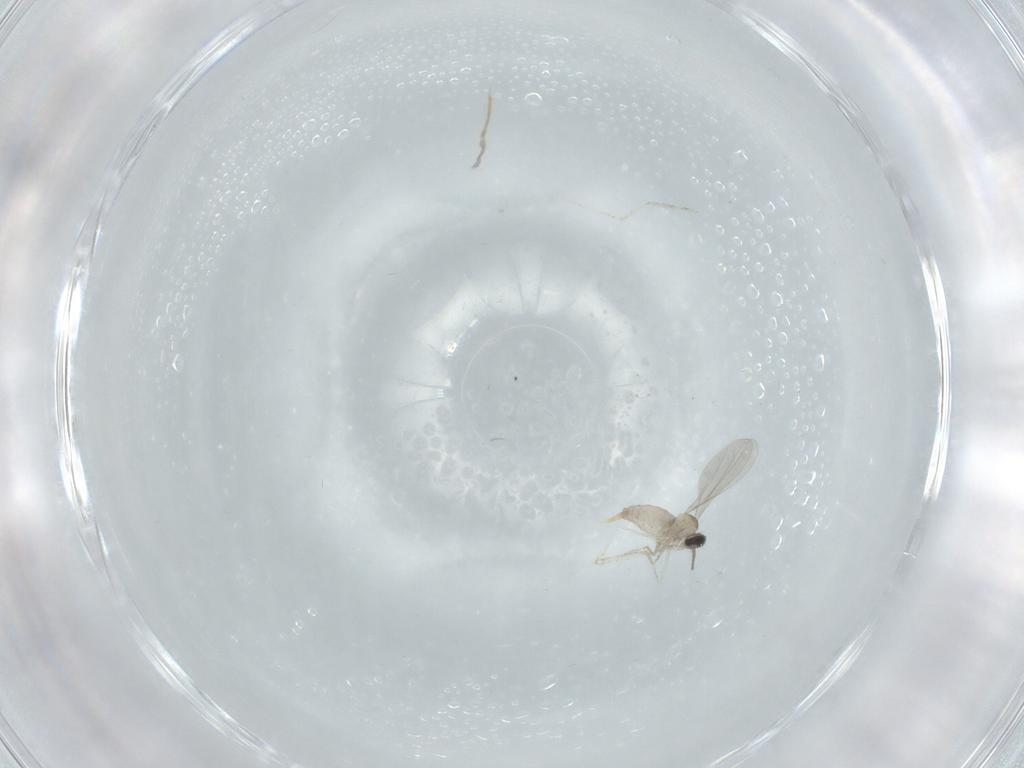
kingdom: Animalia
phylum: Arthropoda
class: Insecta
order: Diptera
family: Cecidomyiidae
